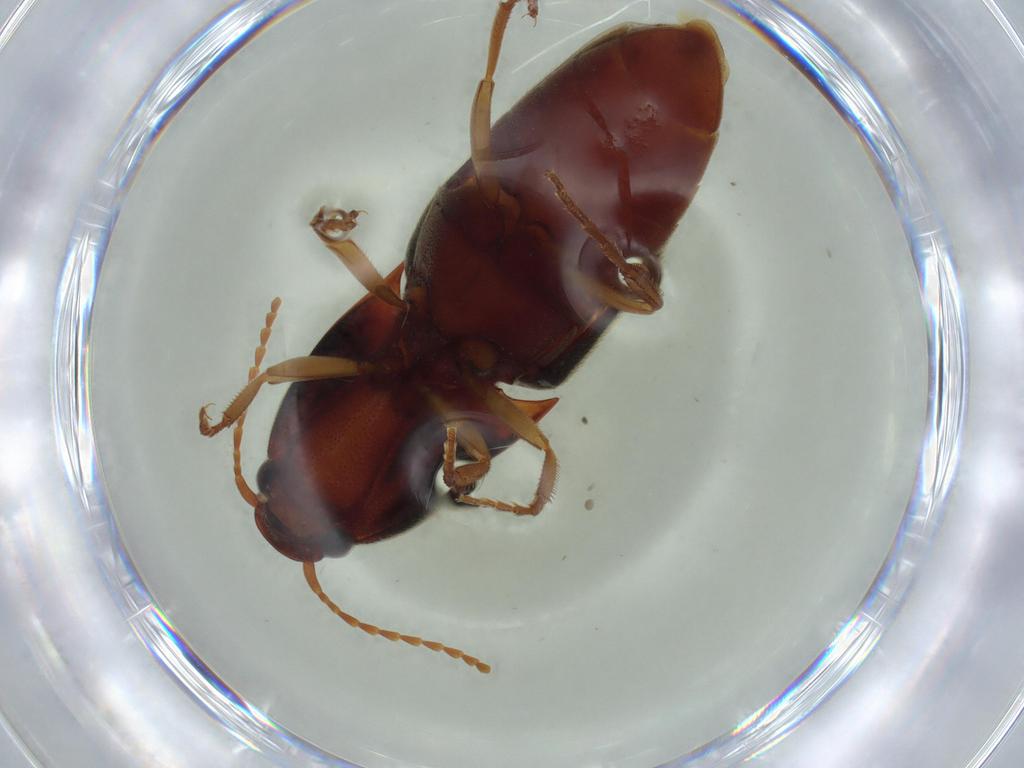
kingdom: Animalia
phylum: Arthropoda
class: Insecta
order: Coleoptera
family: Elateridae
